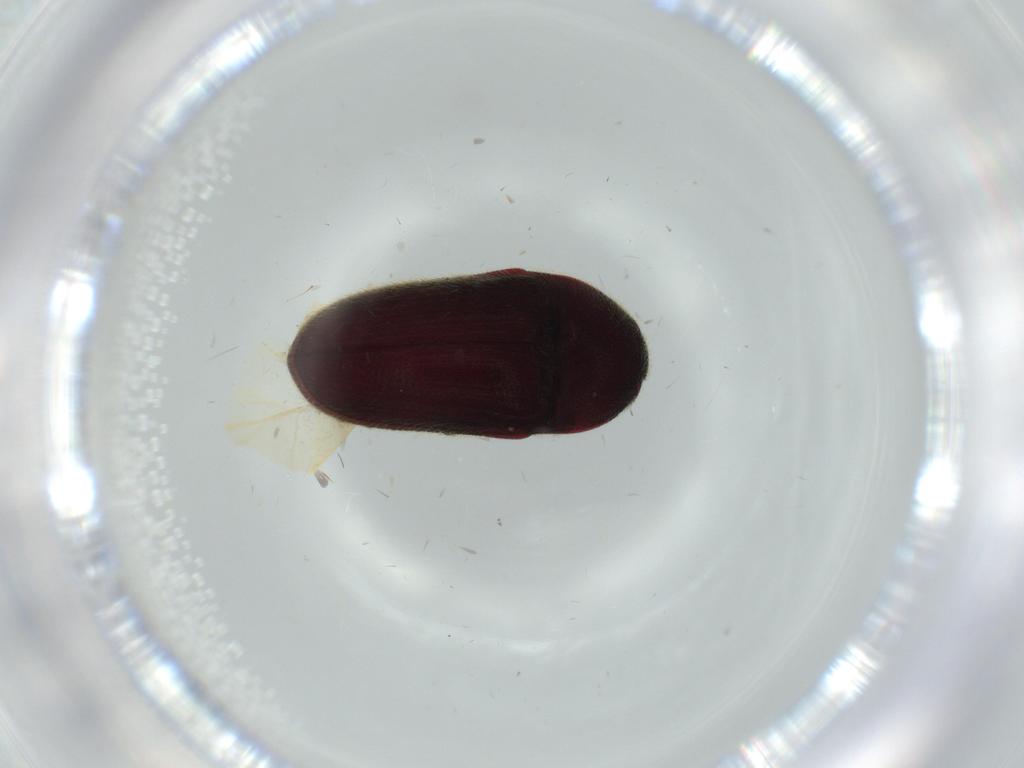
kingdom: Animalia
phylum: Arthropoda
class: Insecta
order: Coleoptera
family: Throscidae
